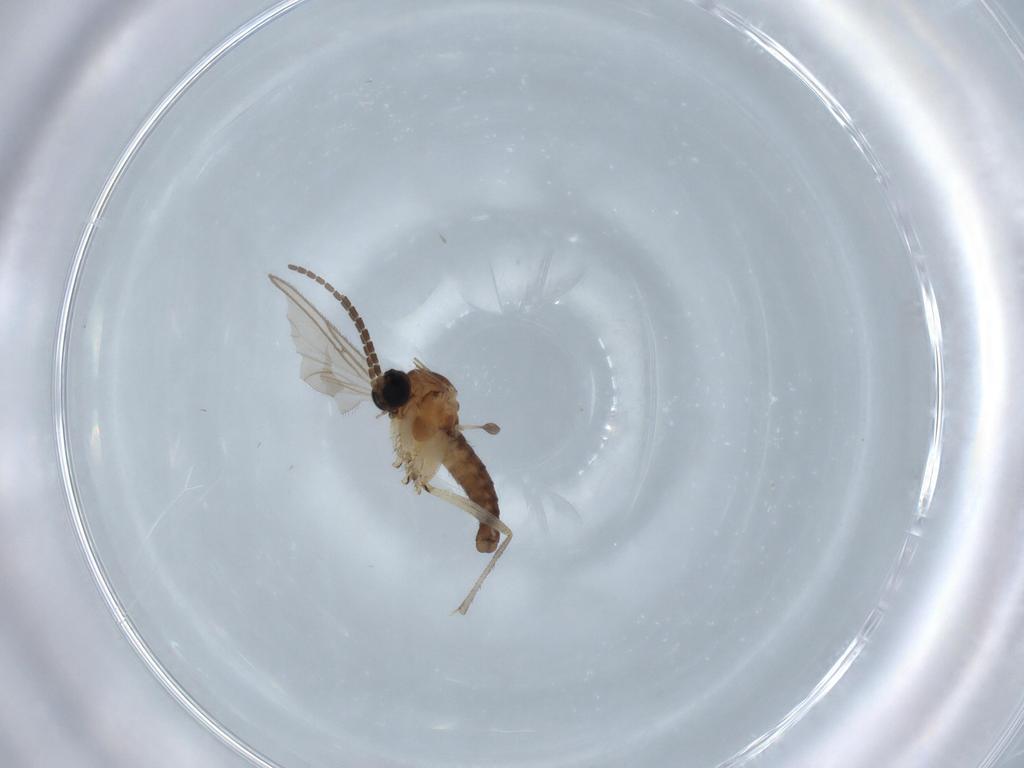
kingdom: Animalia
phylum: Arthropoda
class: Insecta
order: Diptera
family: Sciaridae
